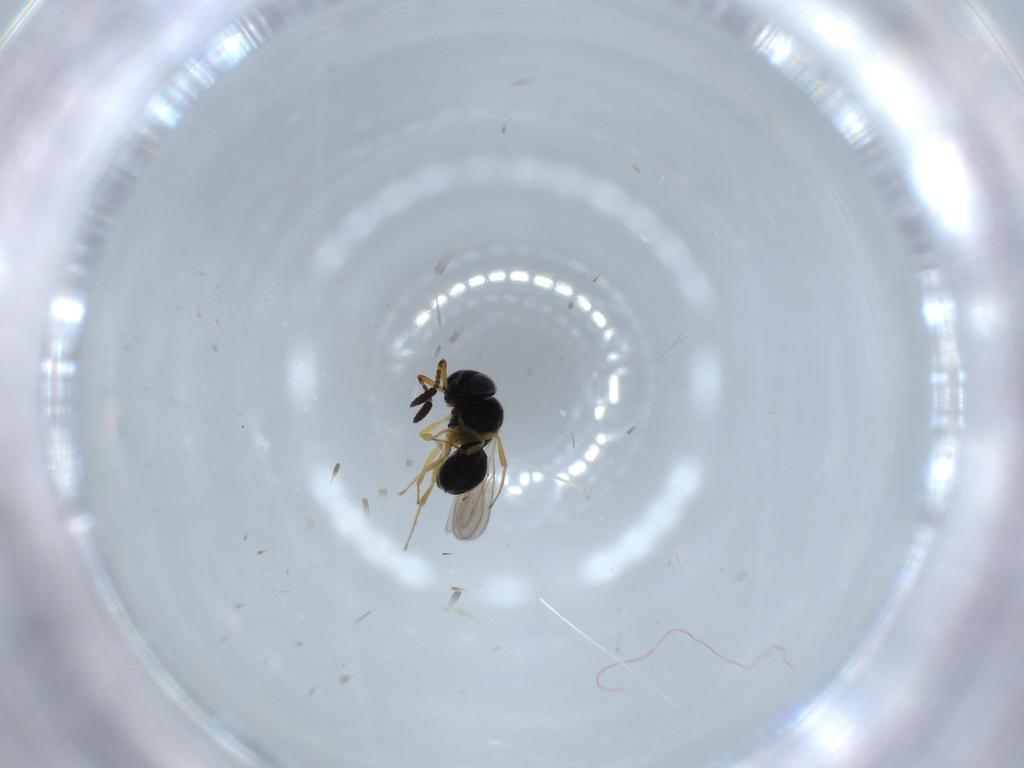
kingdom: Animalia
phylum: Arthropoda
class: Insecta
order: Hymenoptera
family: Scelionidae
